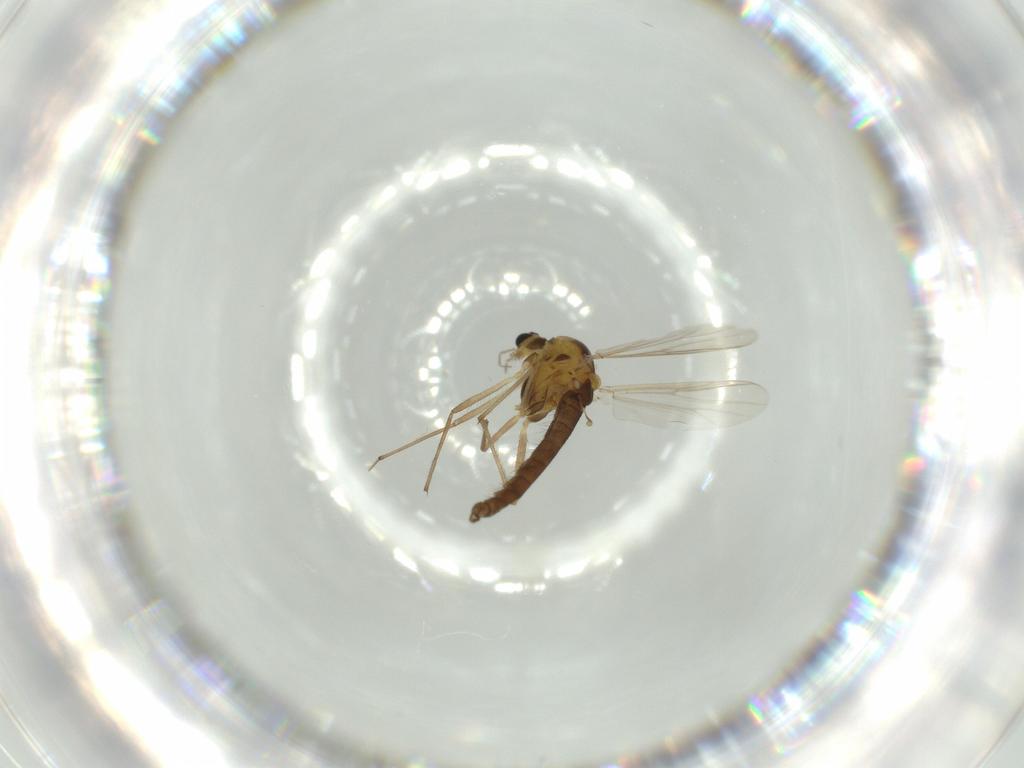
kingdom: Animalia
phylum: Arthropoda
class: Insecta
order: Diptera
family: Chironomidae
